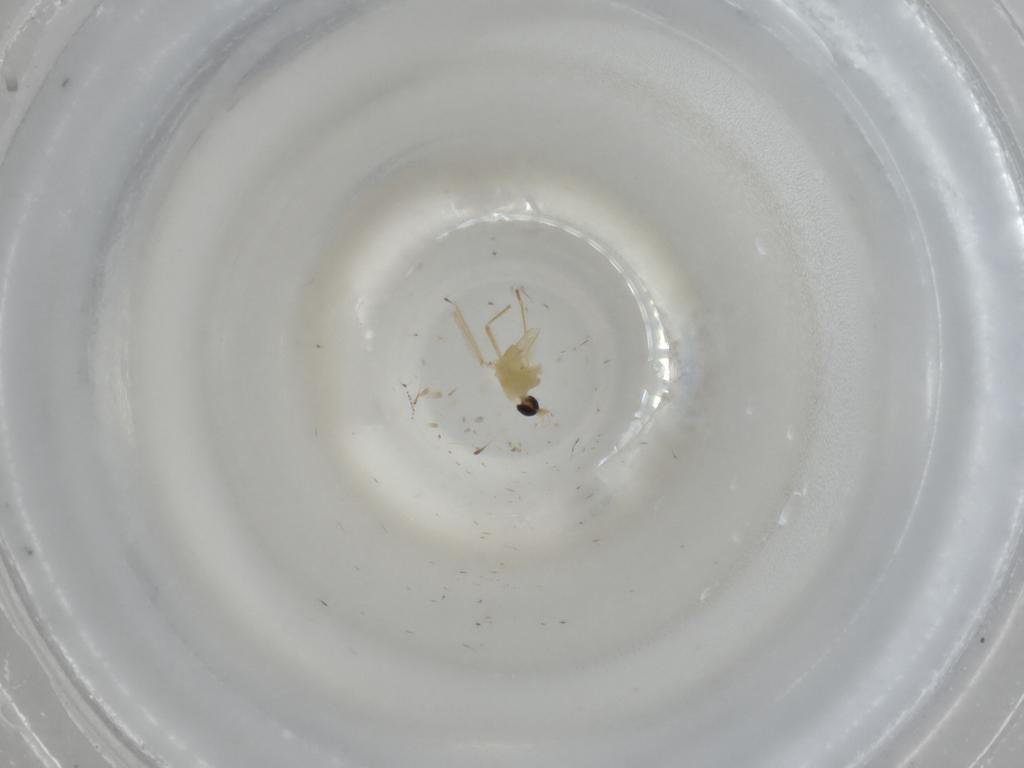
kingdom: Animalia
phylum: Arthropoda
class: Insecta
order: Diptera
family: Chironomidae
